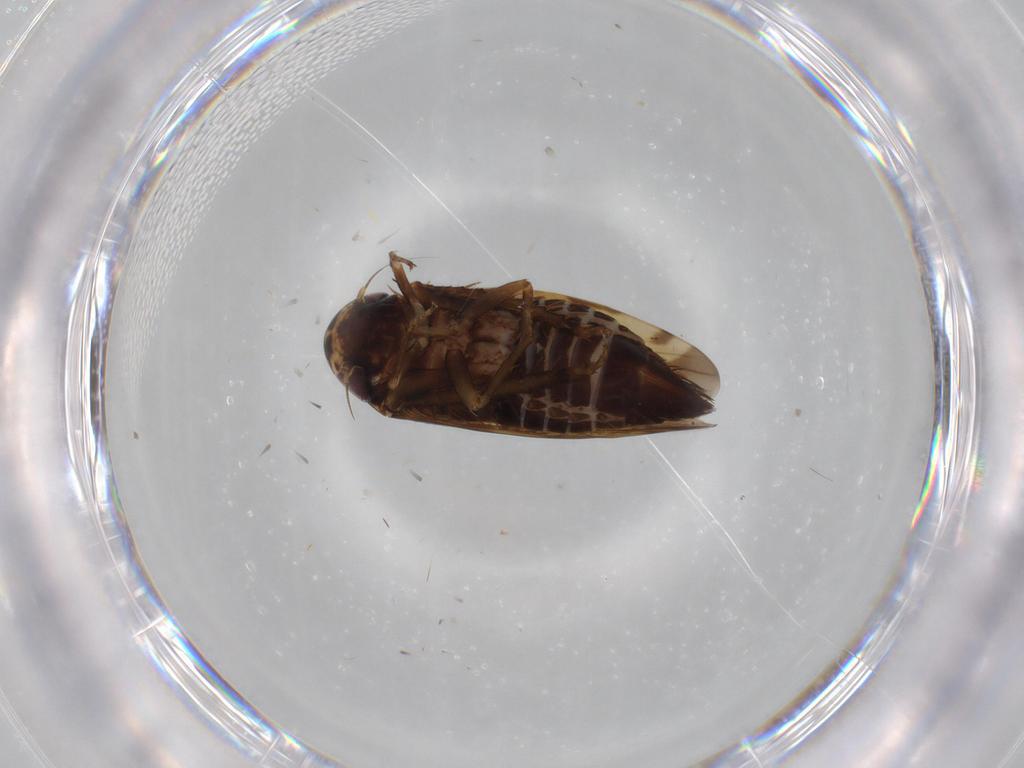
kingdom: Animalia
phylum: Arthropoda
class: Insecta
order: Hemiptera
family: Cicadellidae
